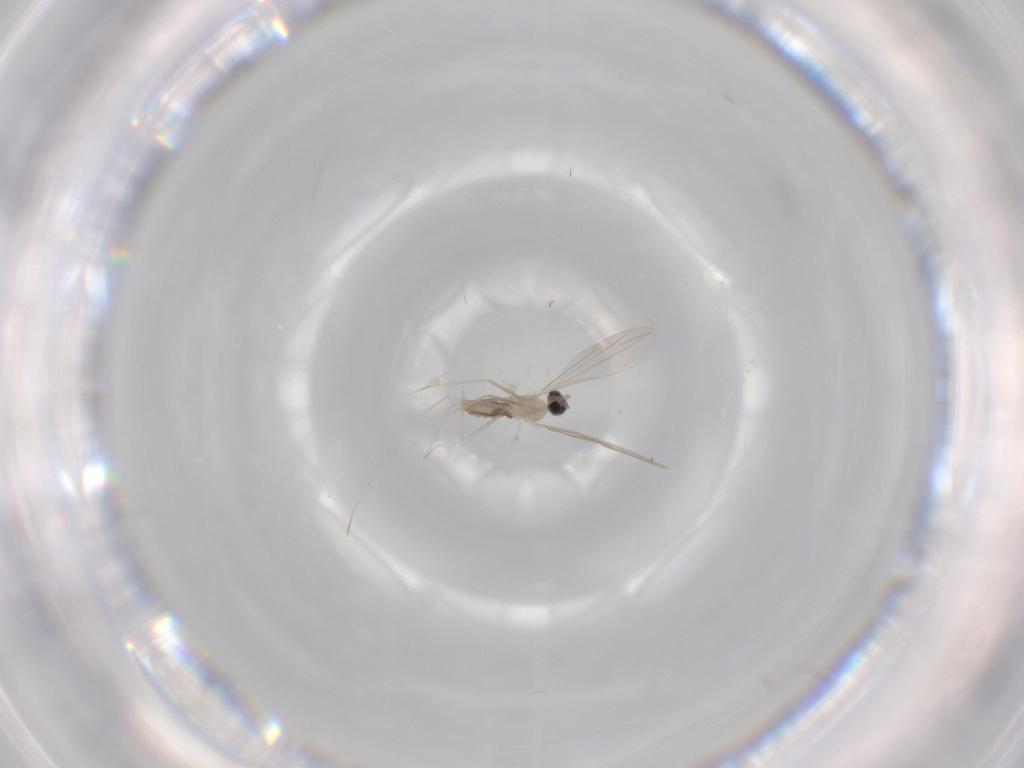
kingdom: Animalia
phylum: Arthropoda
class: Insecta
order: Diptera
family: Cecidomyiidae
